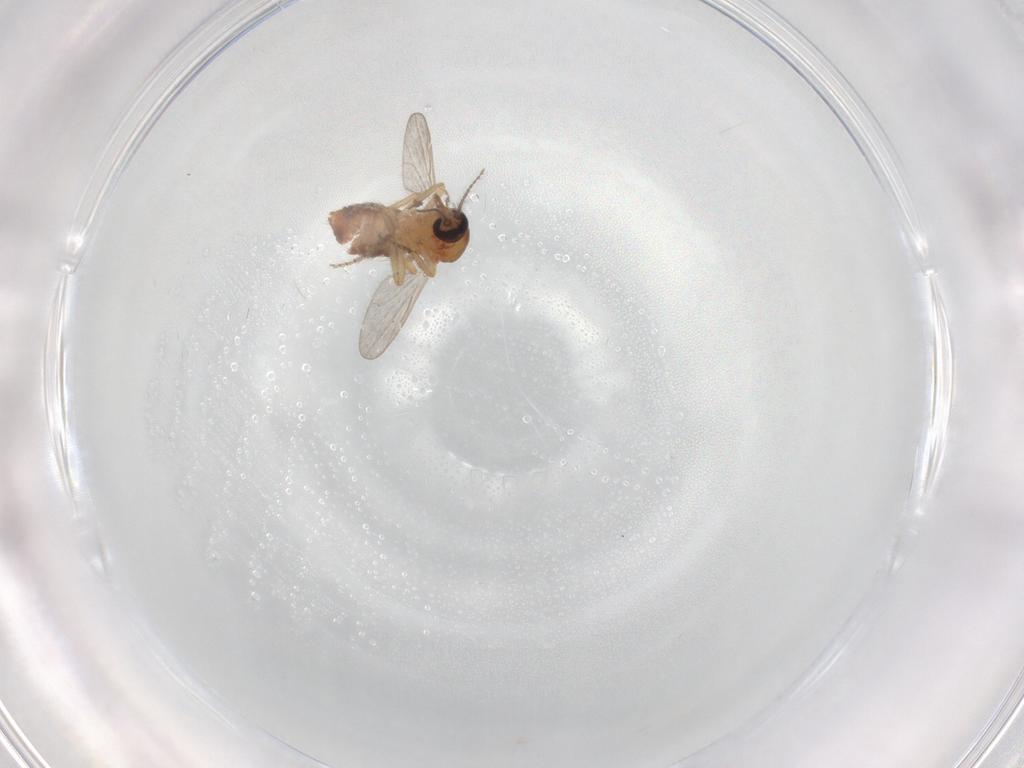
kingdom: Animalia
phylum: Arthropoda
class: Insecta
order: Diptera
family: Ceratopogonidae
